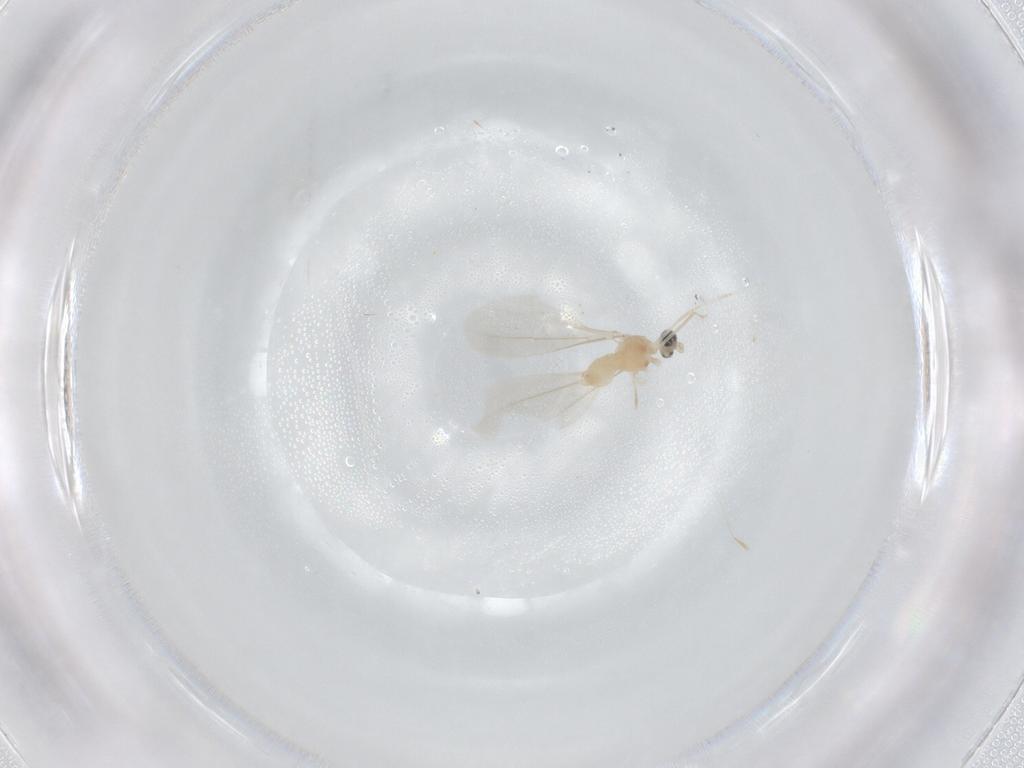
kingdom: Animalia
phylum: Arthropoda
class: Insecta
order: Diptera
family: Cecidomyiidae
